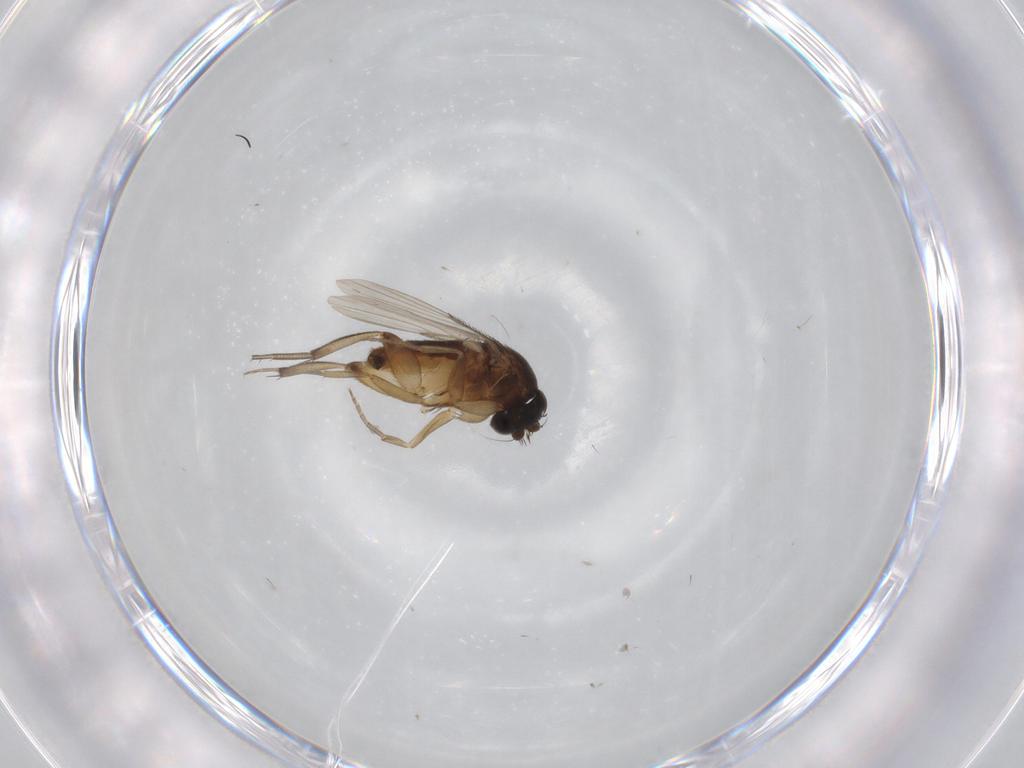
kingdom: Animalia
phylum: Arthropoda
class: Insecta
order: Diptera
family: Phoridae
